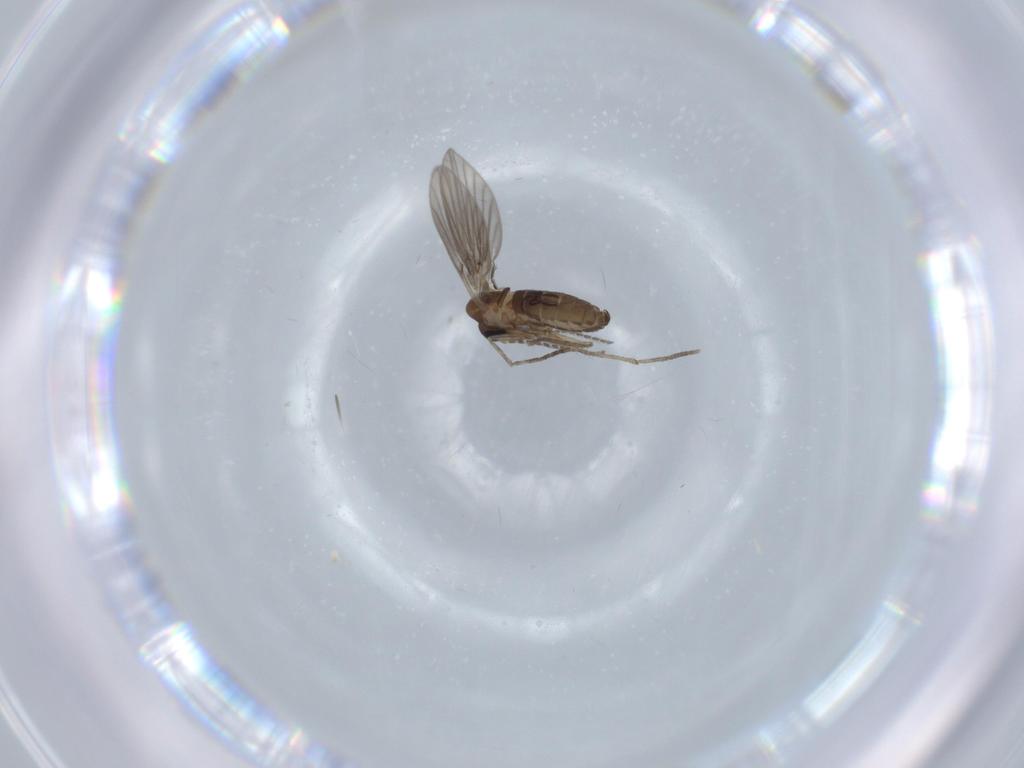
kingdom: Animalia
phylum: Arthropoda
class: Insecta
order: Diptera
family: Psychodidae
